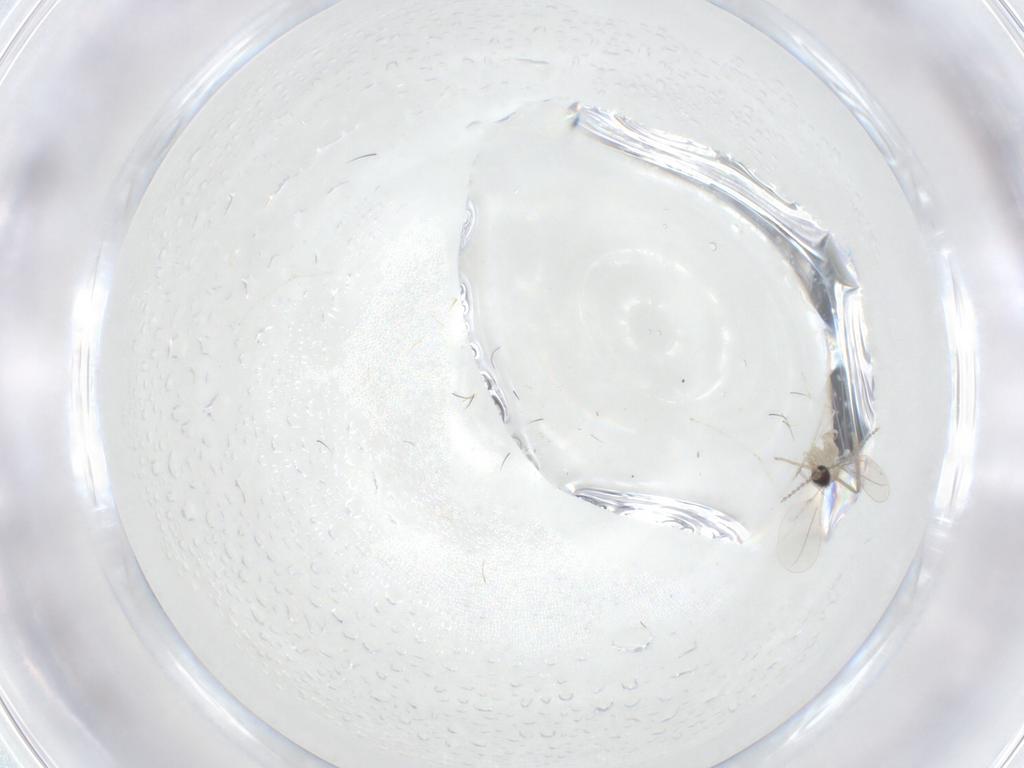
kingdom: Animalia
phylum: Arthropoda
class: Insecta
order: Diptera
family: Cecidomyiidae
